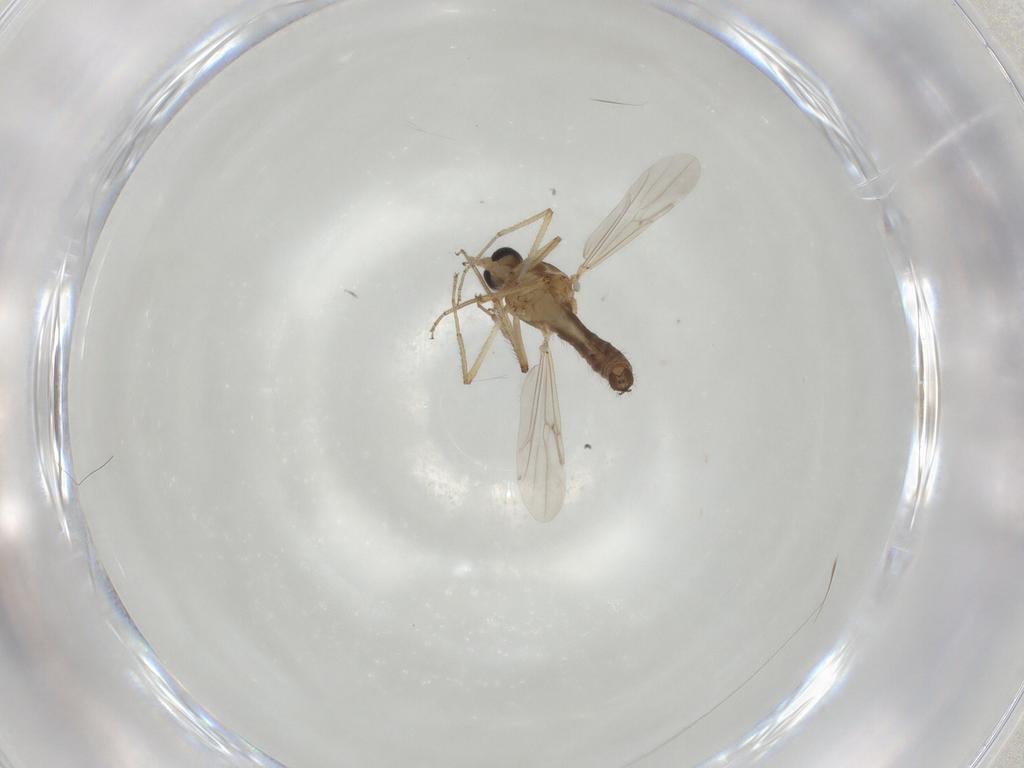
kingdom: Animalia
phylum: Arthropoda
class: Insecta
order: Diptera
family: Ceratopogonidae
